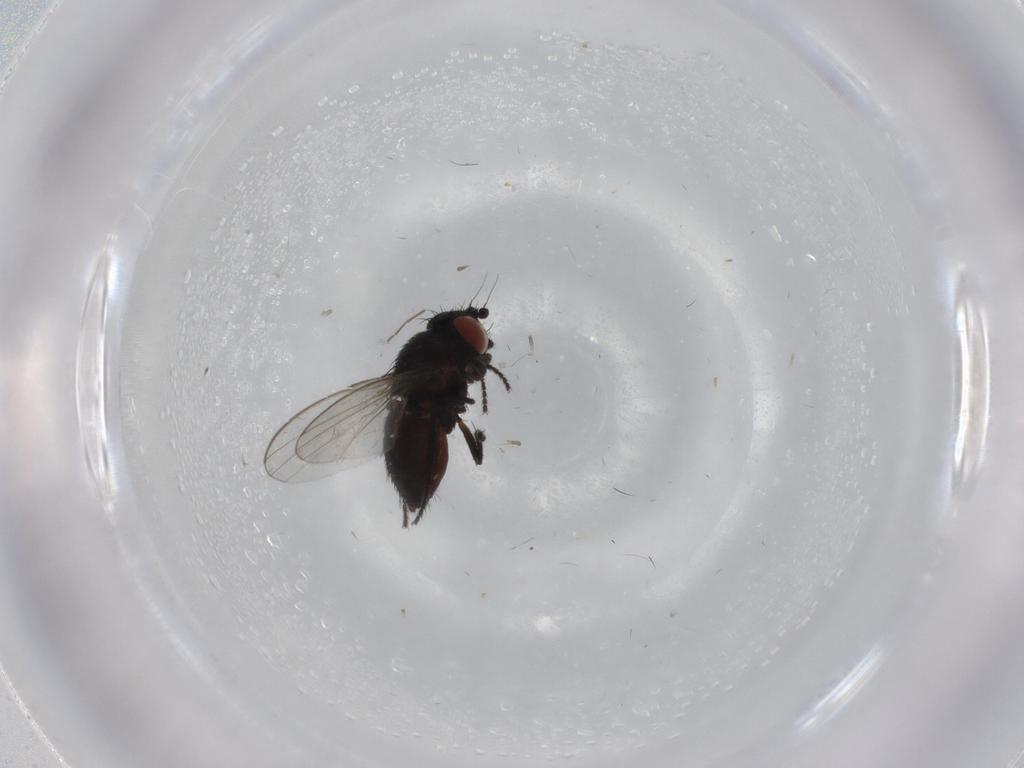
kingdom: Animalia
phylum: Arthropoda
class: Insecta
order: Diptera
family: Milichiidae
